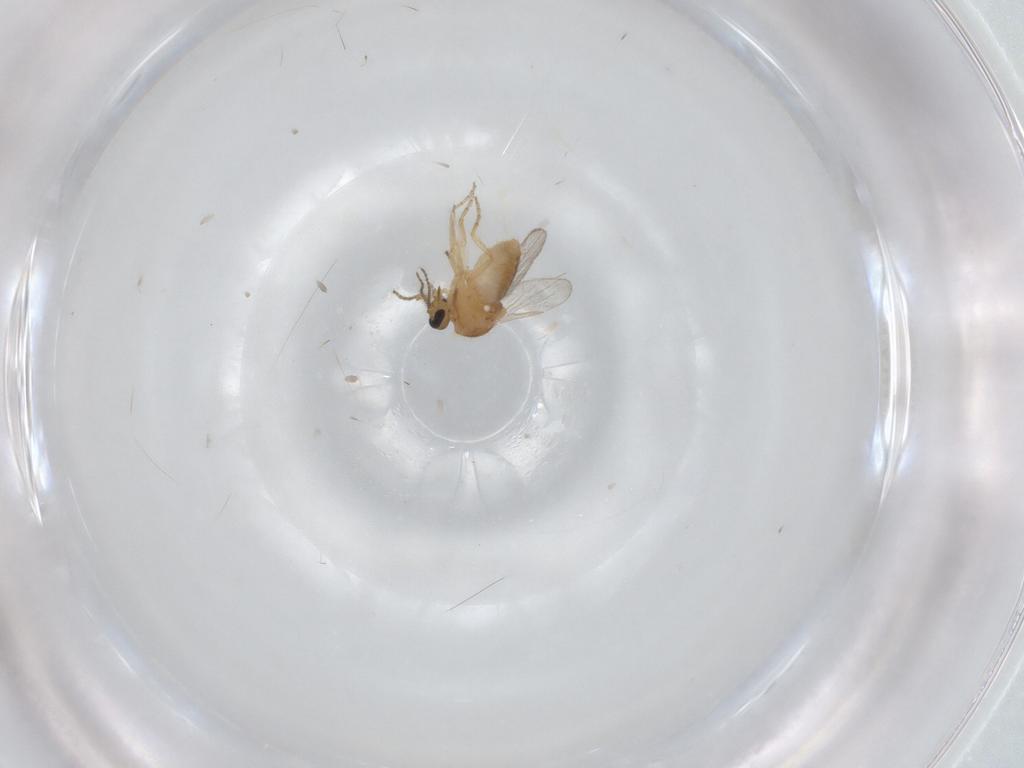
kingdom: Animalia
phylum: Arthropoda
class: Insecta
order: Diptera
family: Ceratopogonidae
